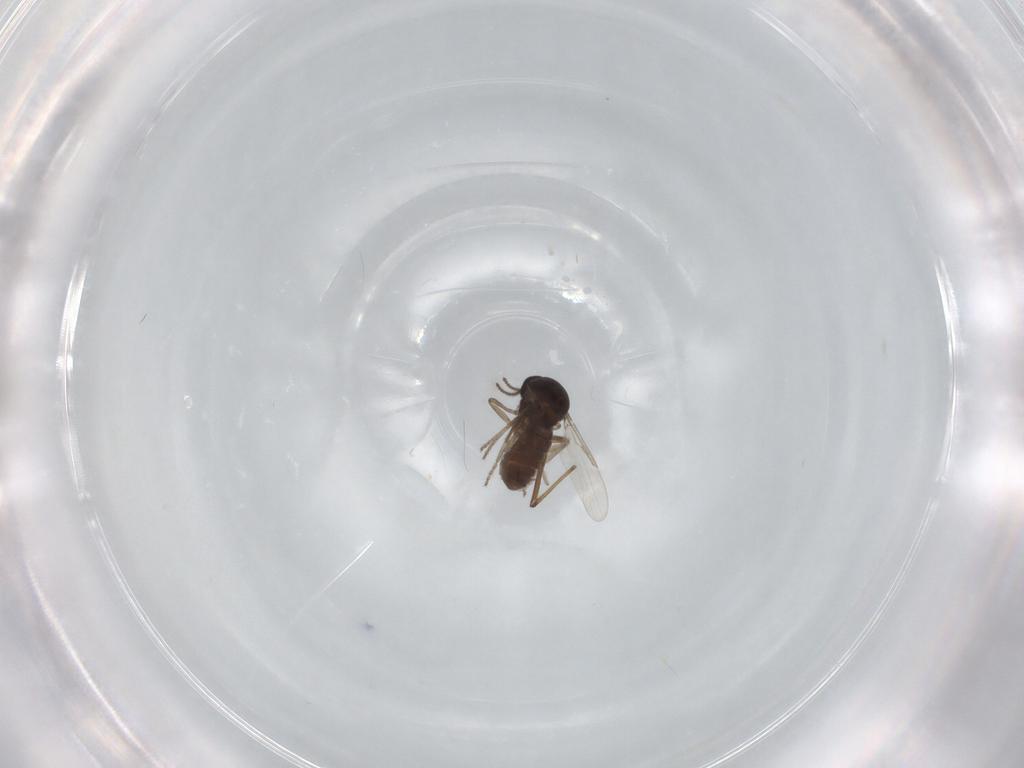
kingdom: Animalia
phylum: Arthropoda
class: Insecta
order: Diptera
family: Ceratopogonidae
